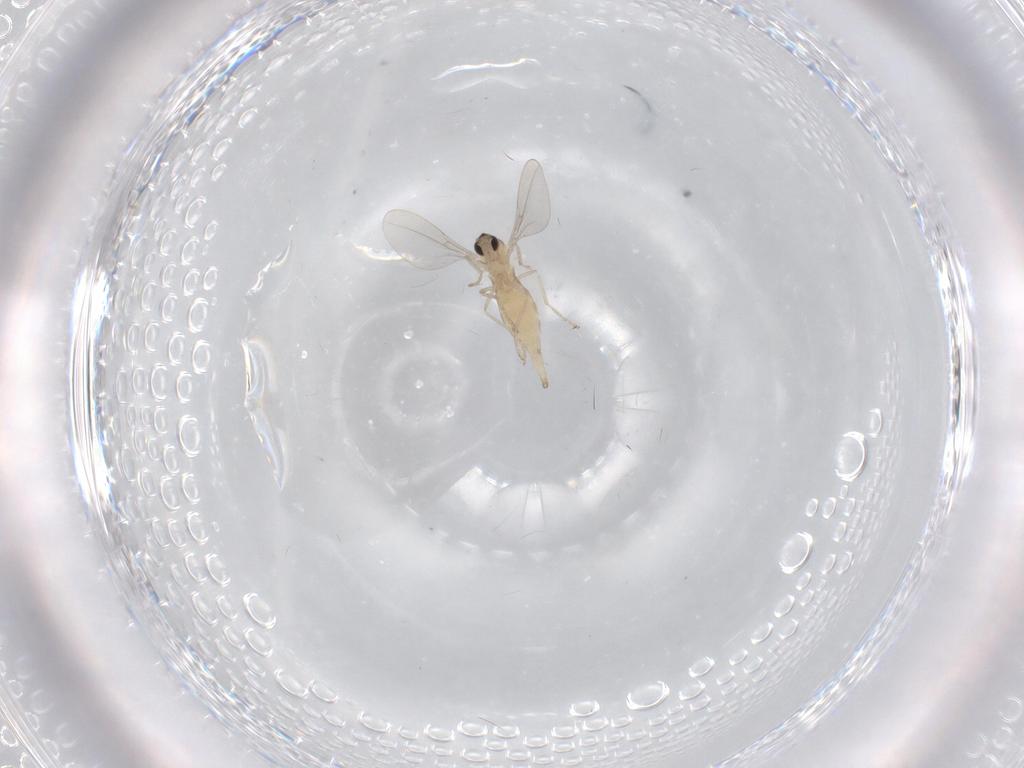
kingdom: Animalia
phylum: Arthropoda
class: Insecta
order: Diptera
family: Cecidomyiidae
